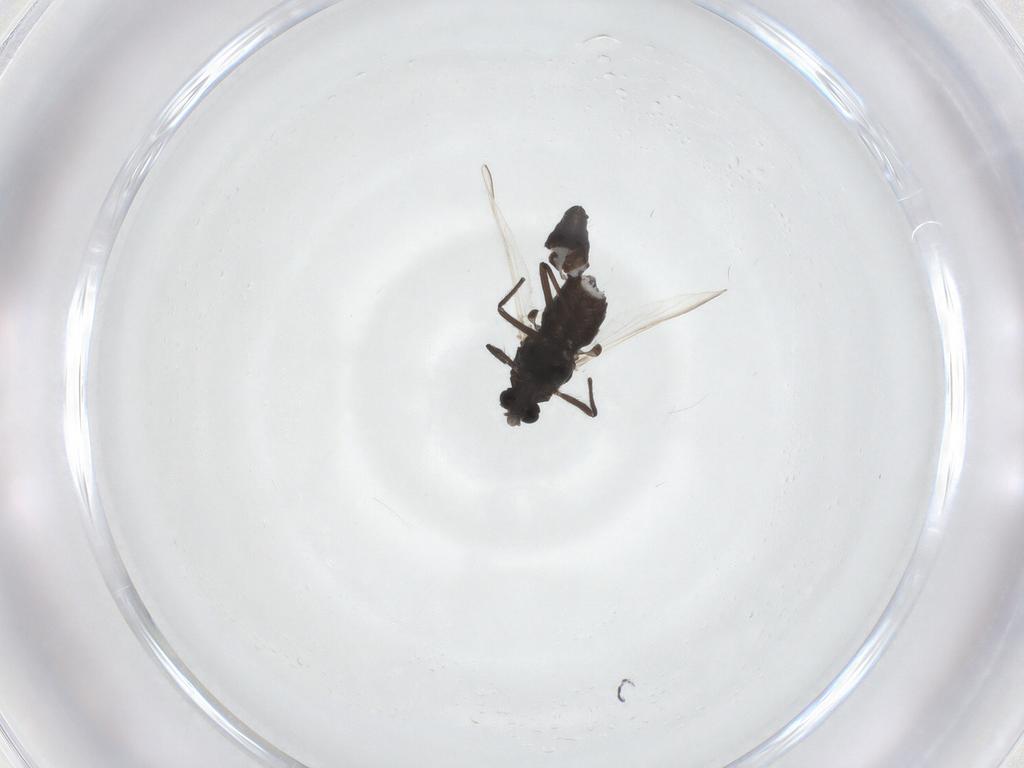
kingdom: Animalia
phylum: Arthropoda
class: Insecta
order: Diptera
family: Chironomidae
